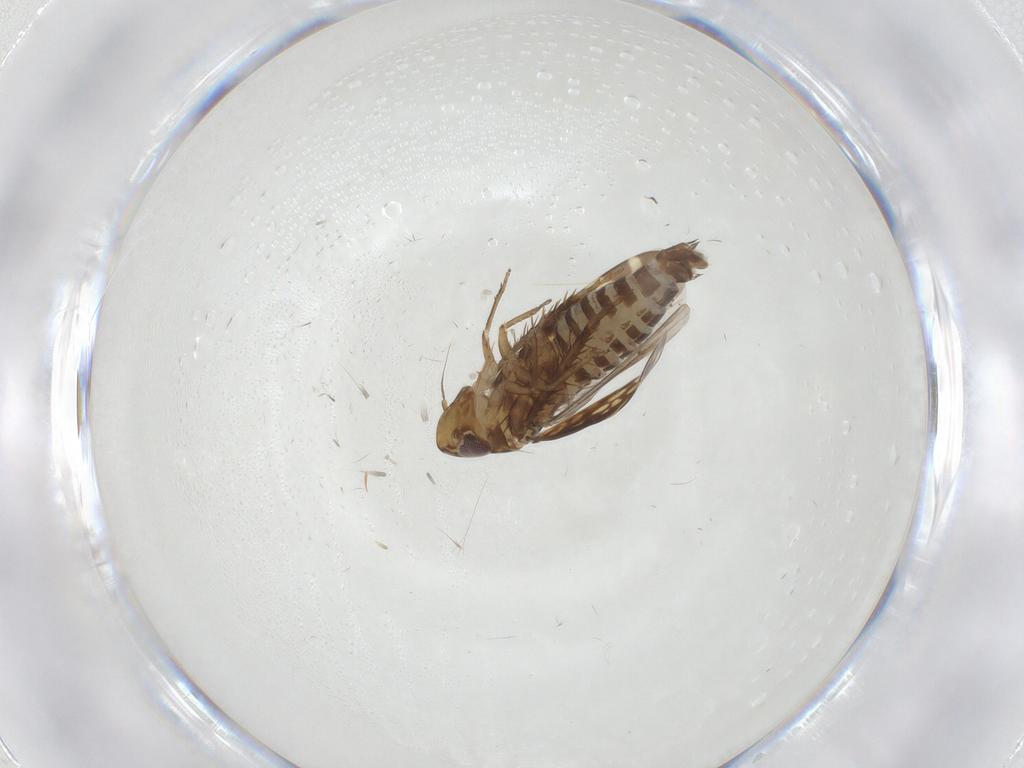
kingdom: Animalia
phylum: Arthropoda
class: Insecta
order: Hemiptera
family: Cicadellidae
